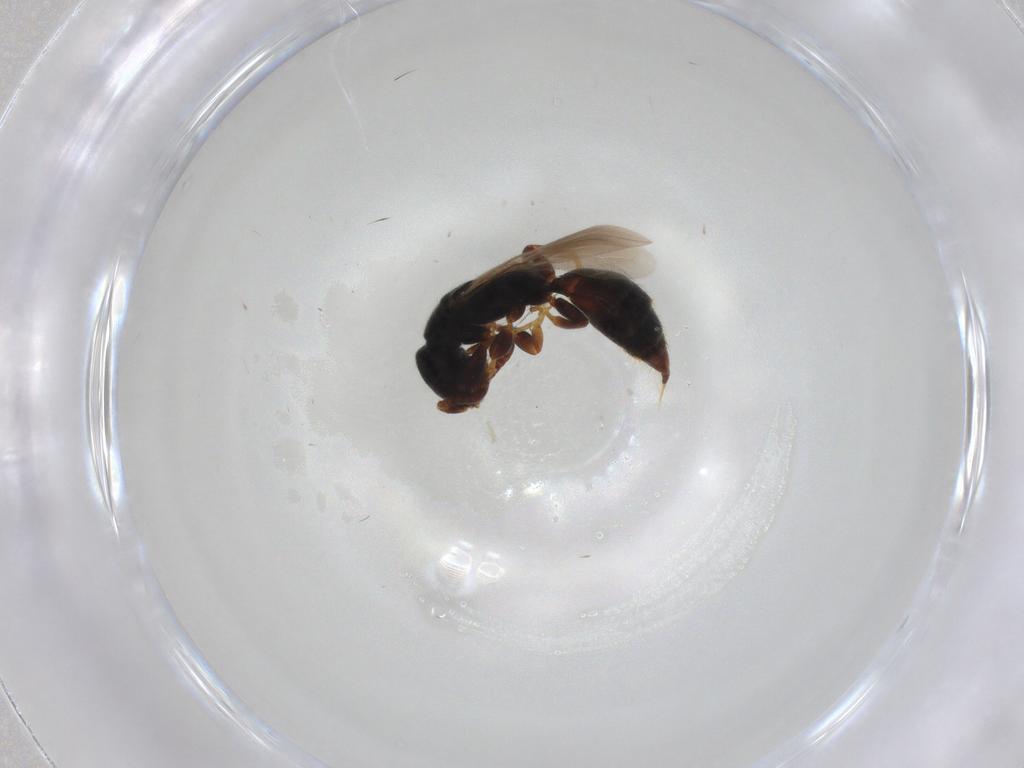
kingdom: Animalia
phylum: Arthropoda
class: Insecta
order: Hymenoptera
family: Bethylidae
